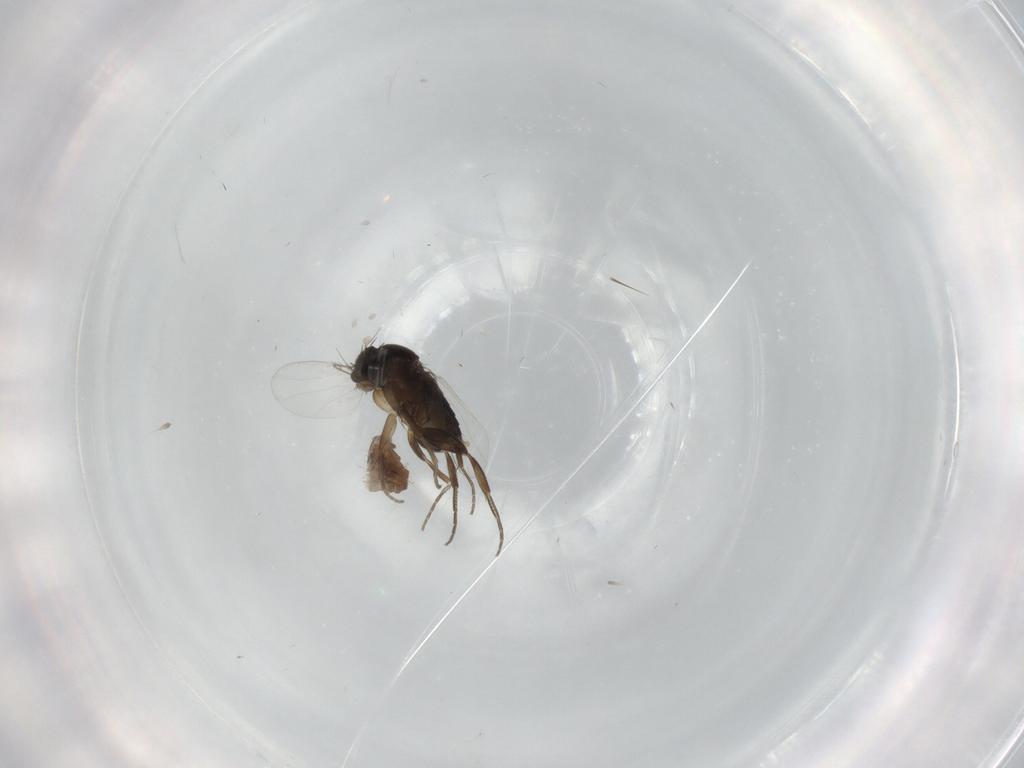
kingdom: Animalia
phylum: Arthropoda
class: Insecta
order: Diptera
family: Phoridae
